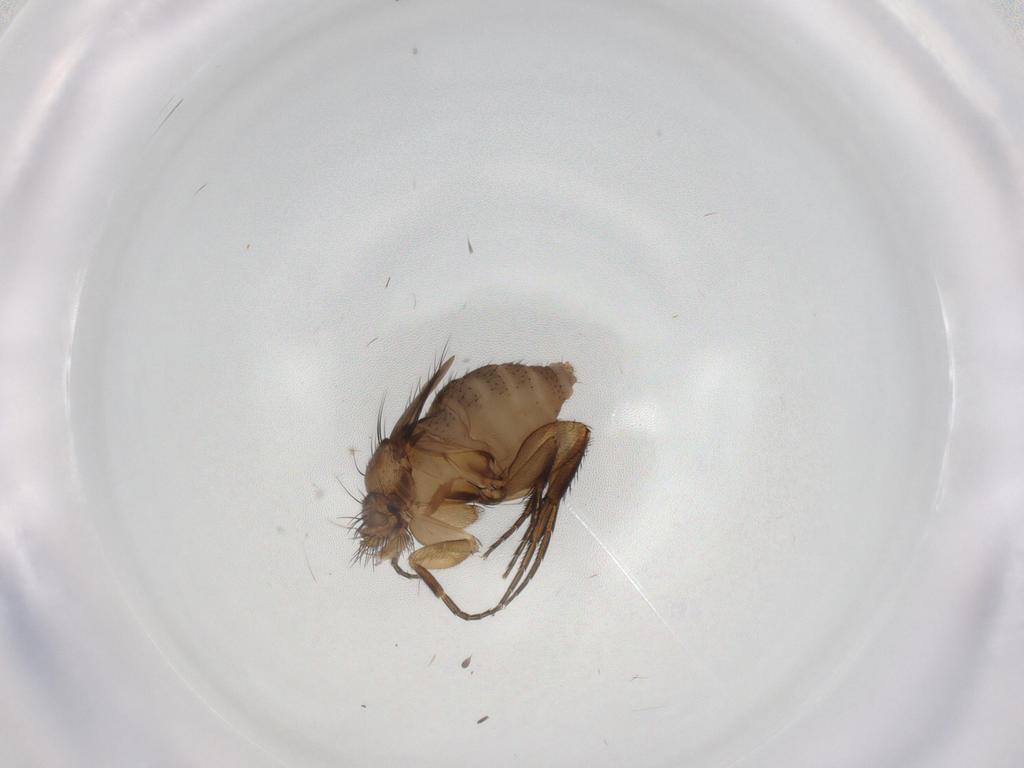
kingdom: Animalia
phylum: Arthropoda
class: Insecta
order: Diptera
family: Phoridae
